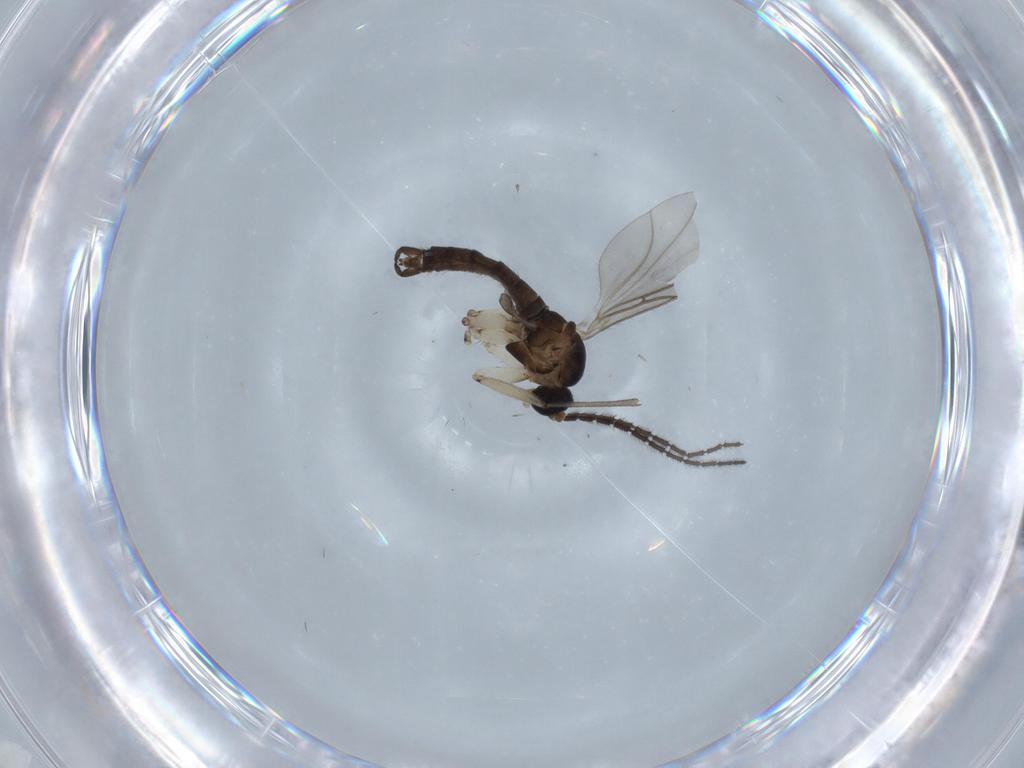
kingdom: Animalia
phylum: Arthropoda
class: Insecta
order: Diptera
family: Sciaridae
